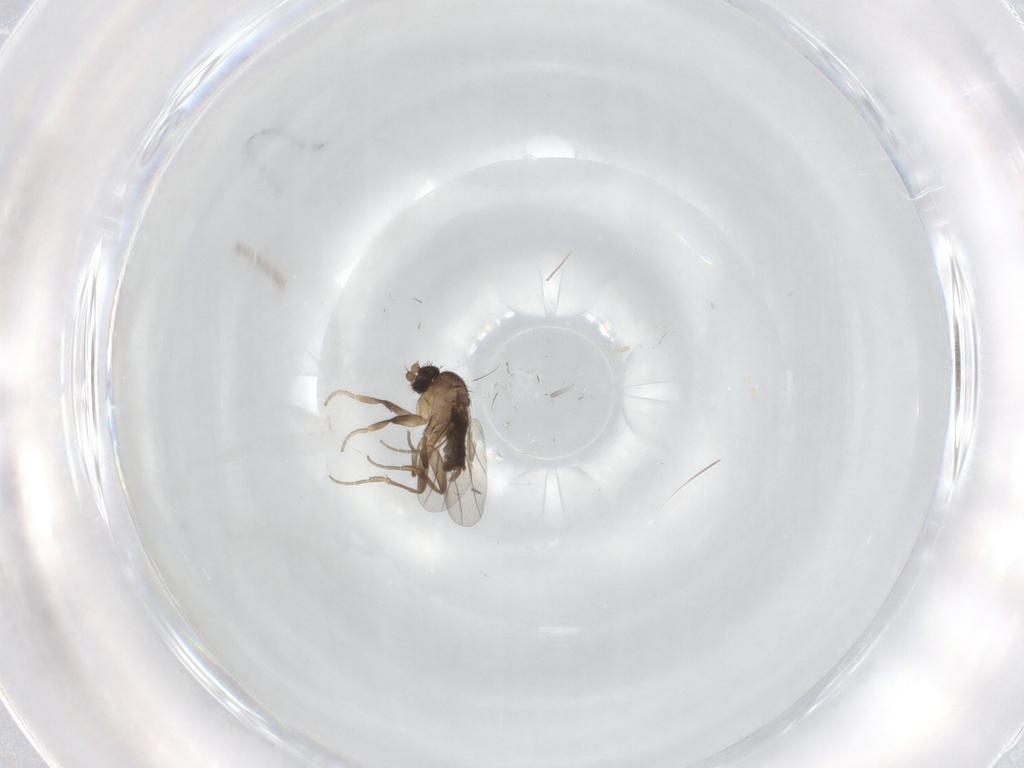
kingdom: Animalia
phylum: Arthropoda
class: Insecta
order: Diptera
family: Phoridae
